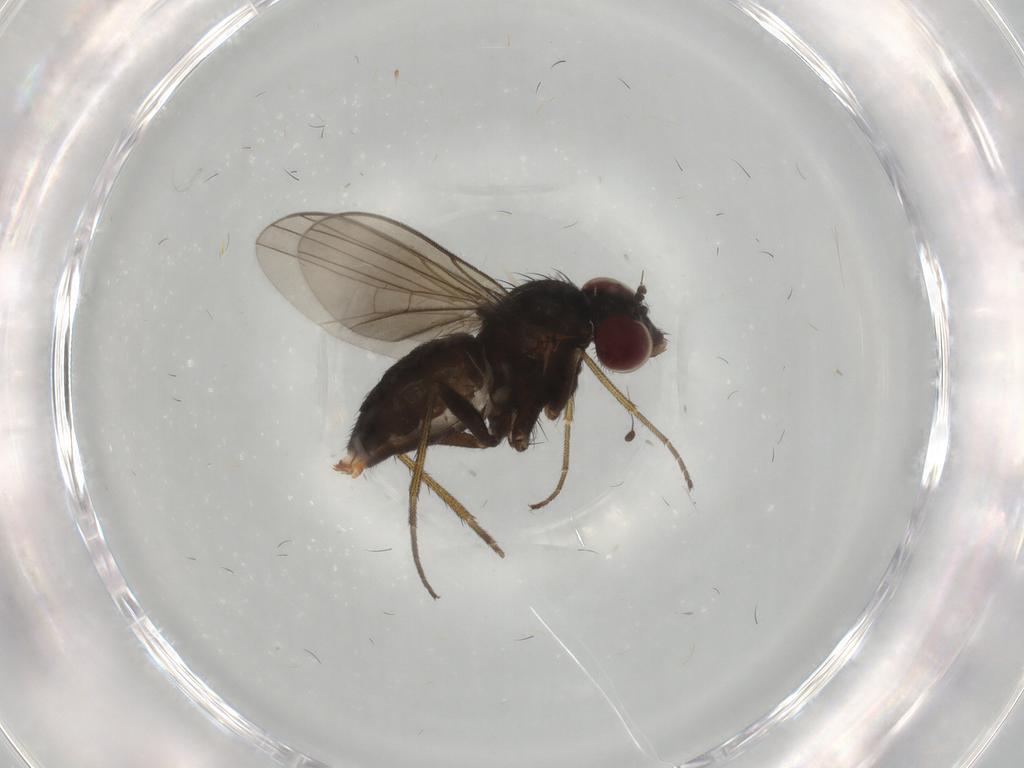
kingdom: Animalia
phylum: Arthropoda
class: Insecta
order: Diptera
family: Dolichopodidae
